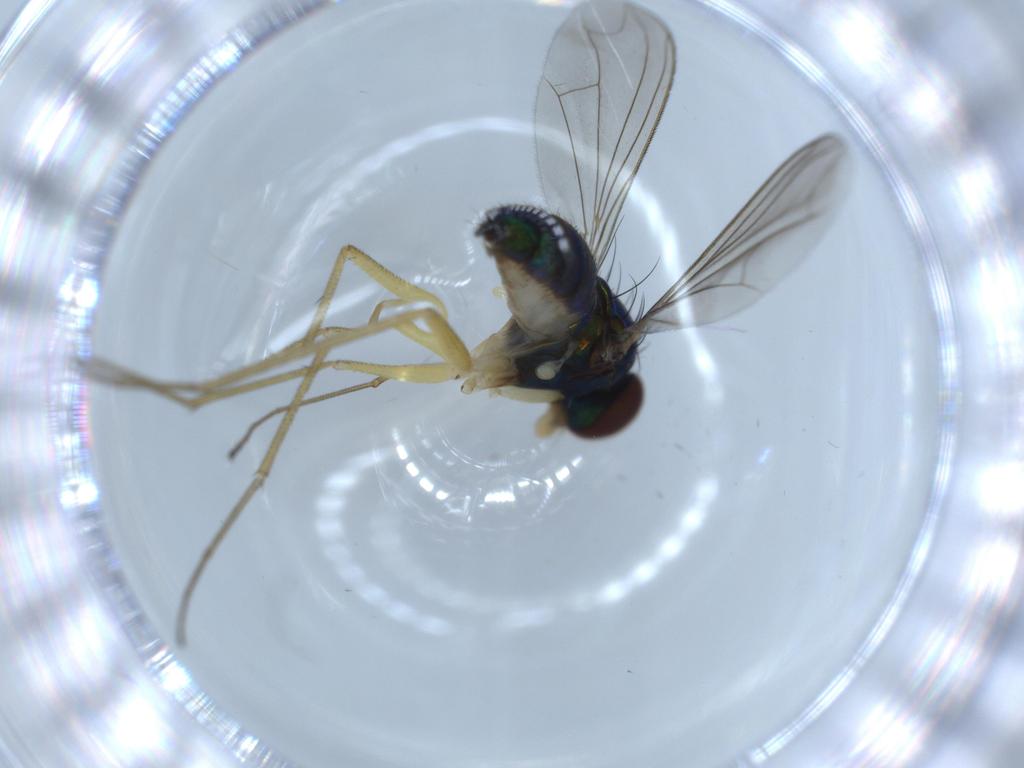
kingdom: Animalia
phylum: Arthropoda
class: Insecta
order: Diptera
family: Dolichopodidae
